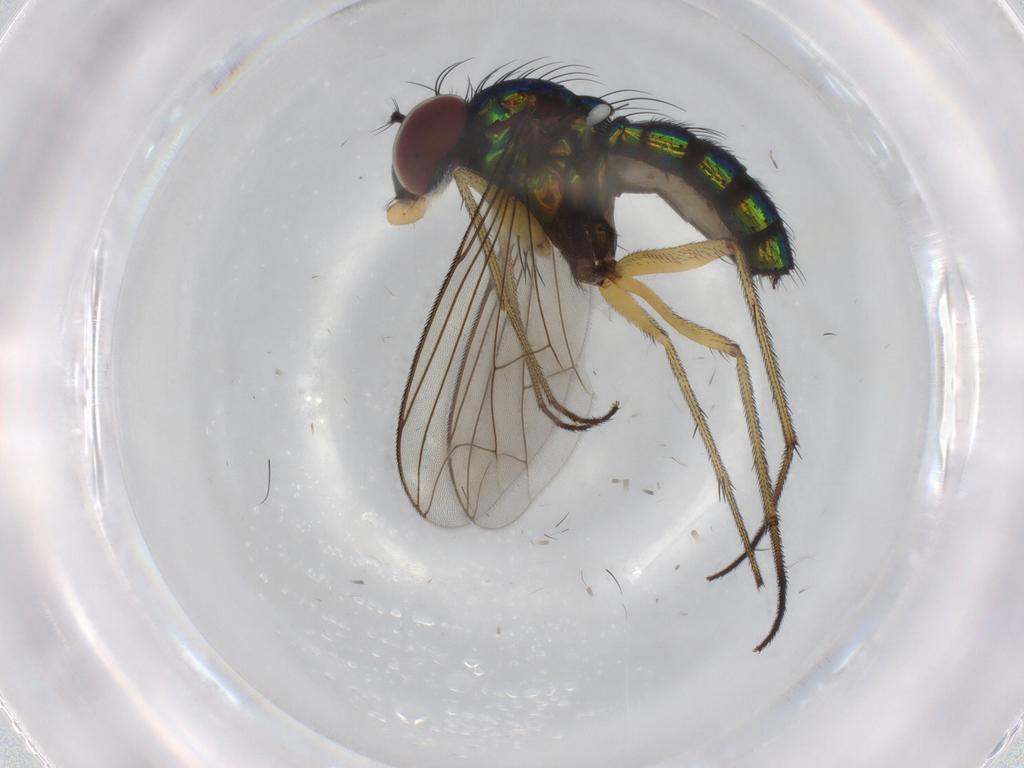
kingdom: Animalia
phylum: Arthropoda
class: Insecta
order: Diptera
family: Dolichopodidae
